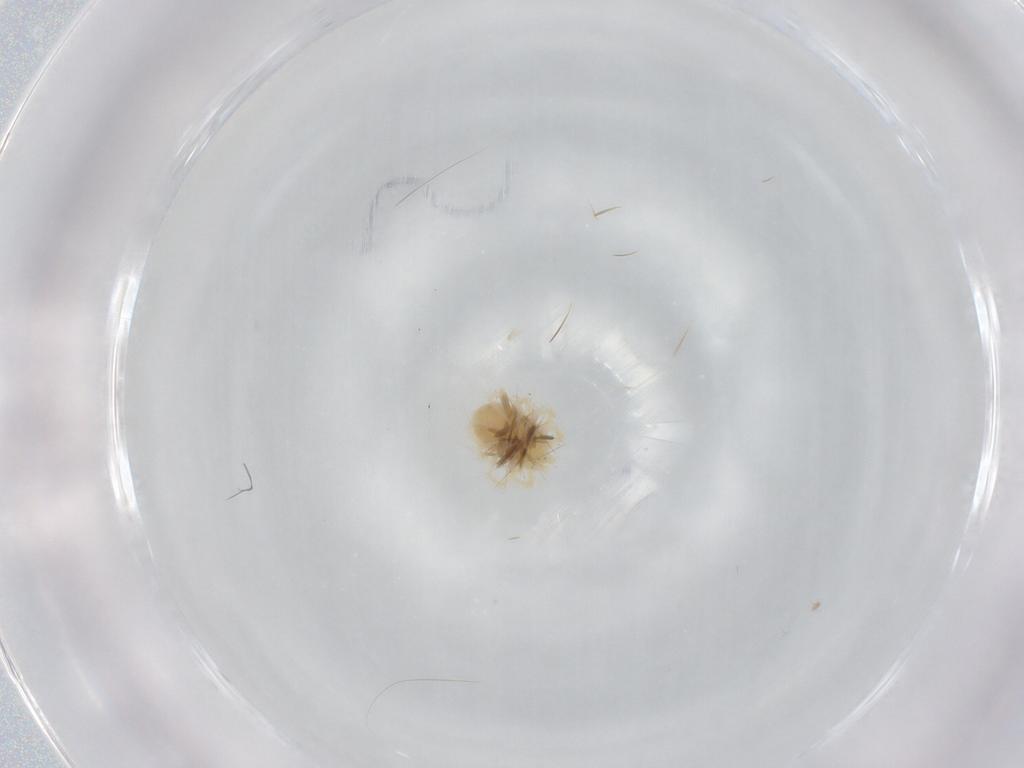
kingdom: Animalia
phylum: Arthropoda
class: Arachnida
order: Trombidiformes
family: Anystidae
